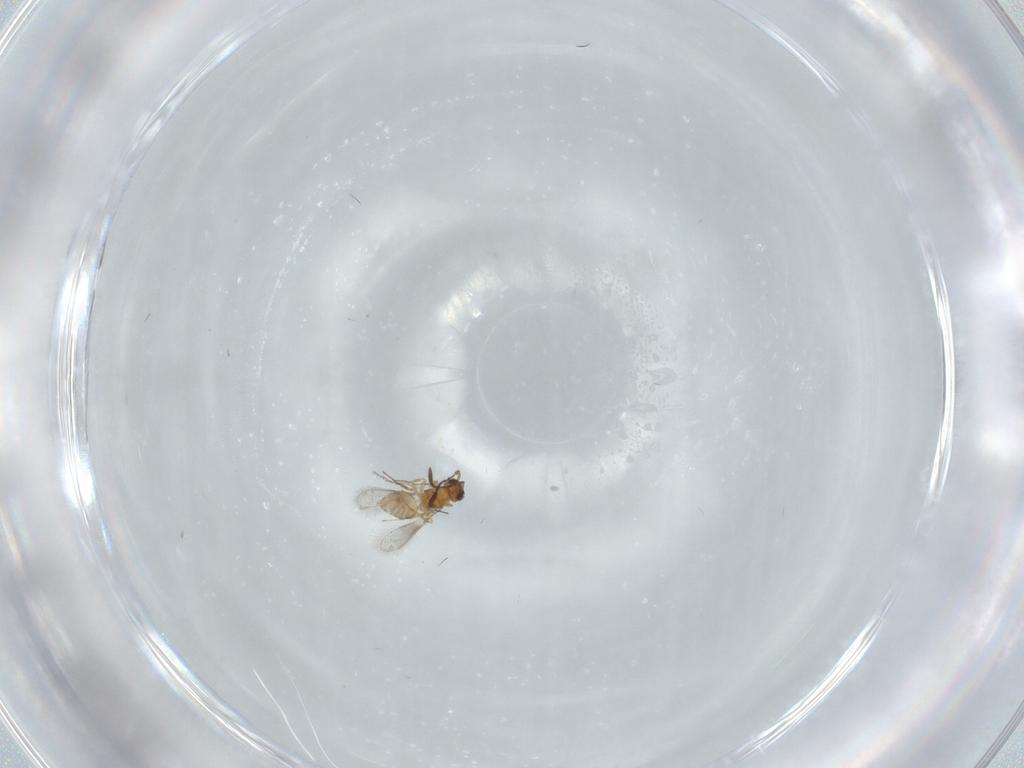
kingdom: Animalia
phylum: Arthropoda
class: Insecta
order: Hymenoptera
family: Mymaridae
